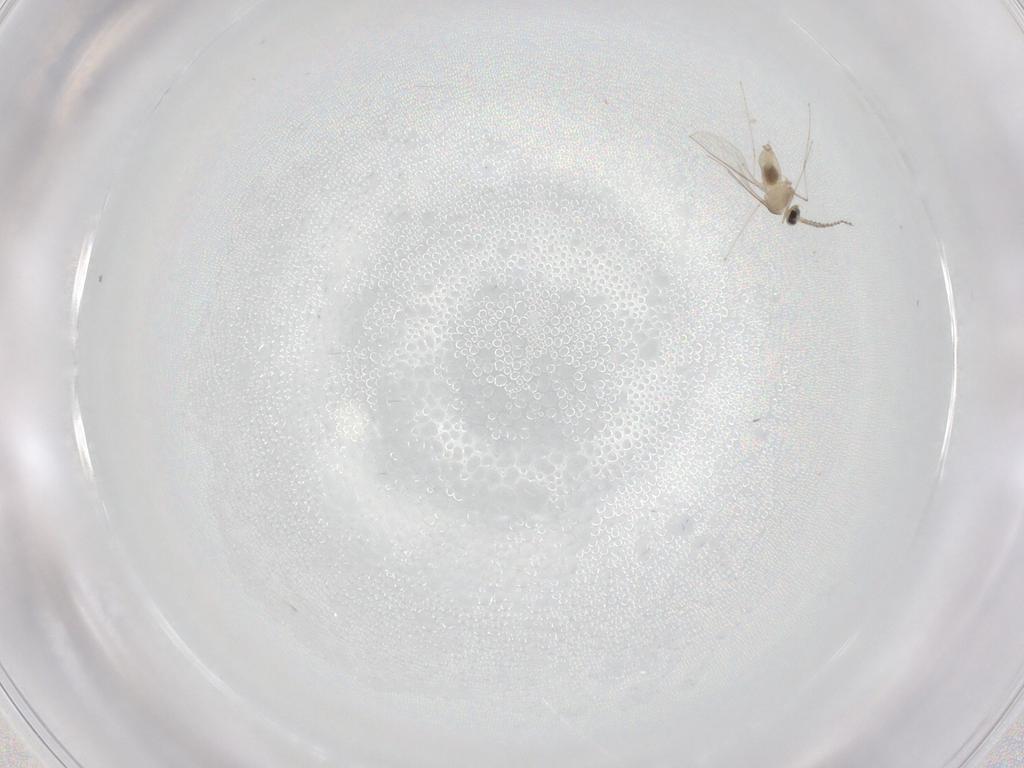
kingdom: Animalia
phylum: Arthropoda
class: Insecta
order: Diptera
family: Cecidomyiidae
